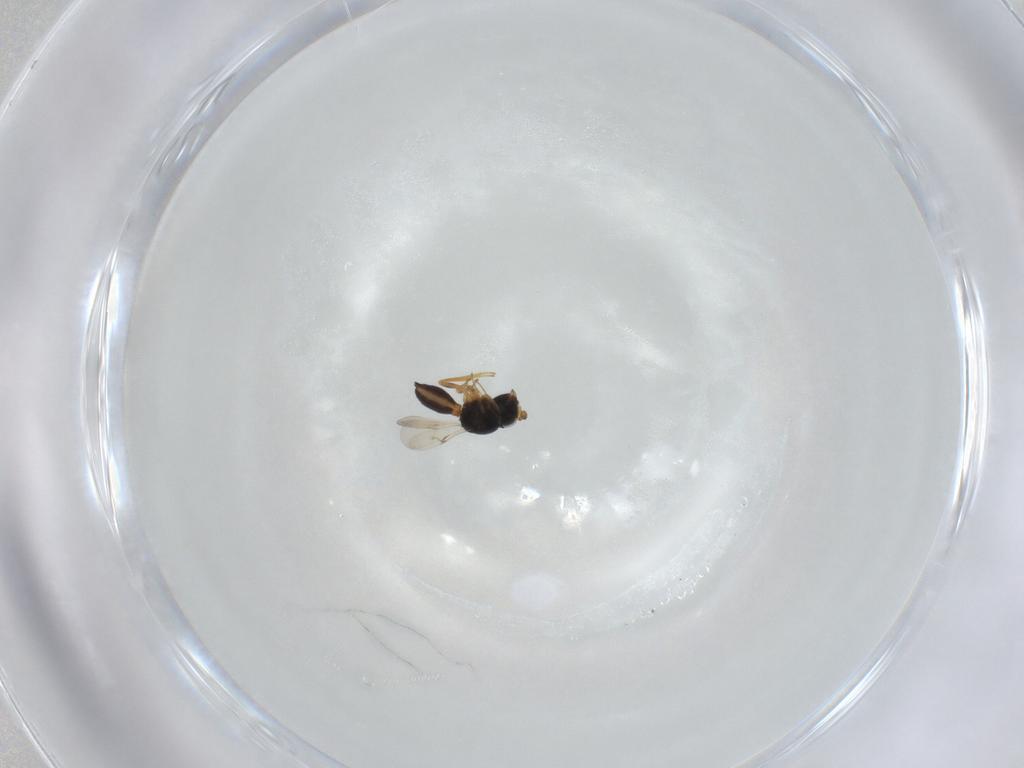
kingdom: Animalia
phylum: Arthropoda
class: Insecta
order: Hymenoptera
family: Scelionidae
